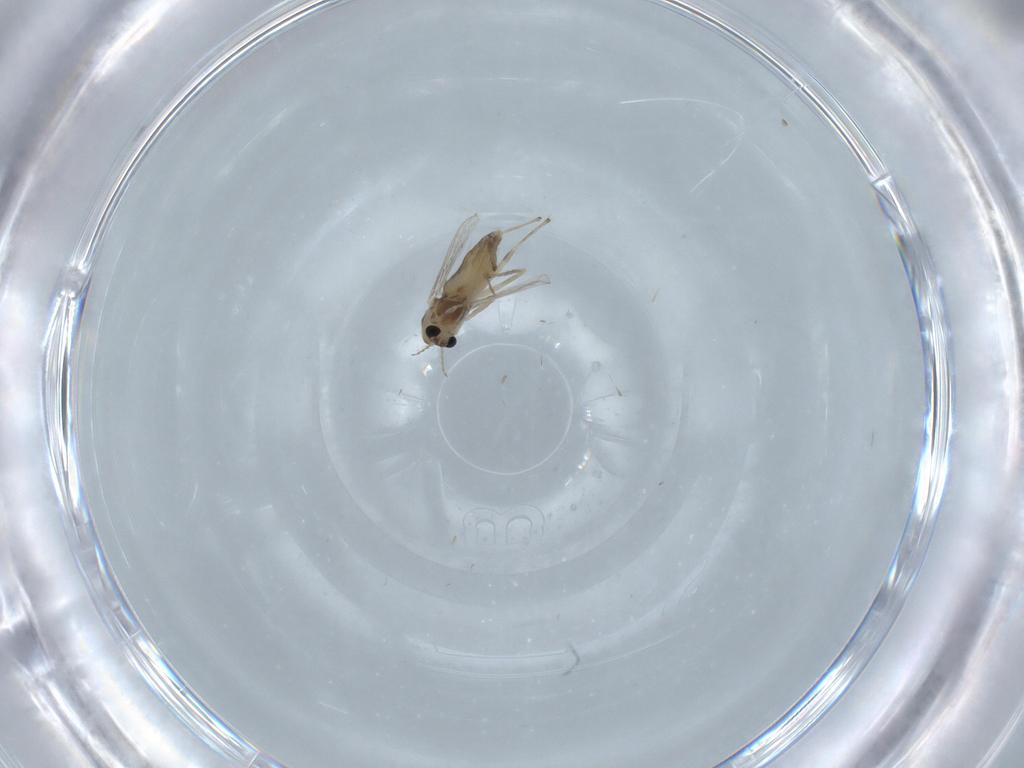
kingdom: Animalia
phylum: Arthropoda
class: Insecta
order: Diptera
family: Chironomidae
